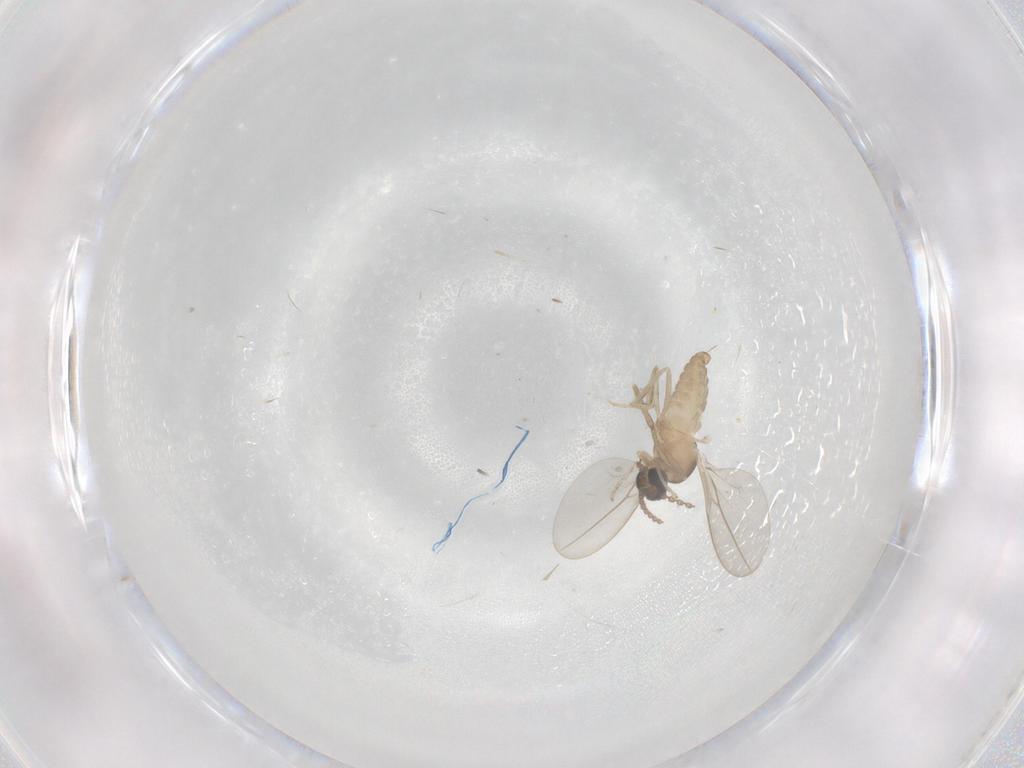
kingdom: Animalia
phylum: Arthropoda
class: Insecta
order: Diptera
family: Cecidomyiidae
